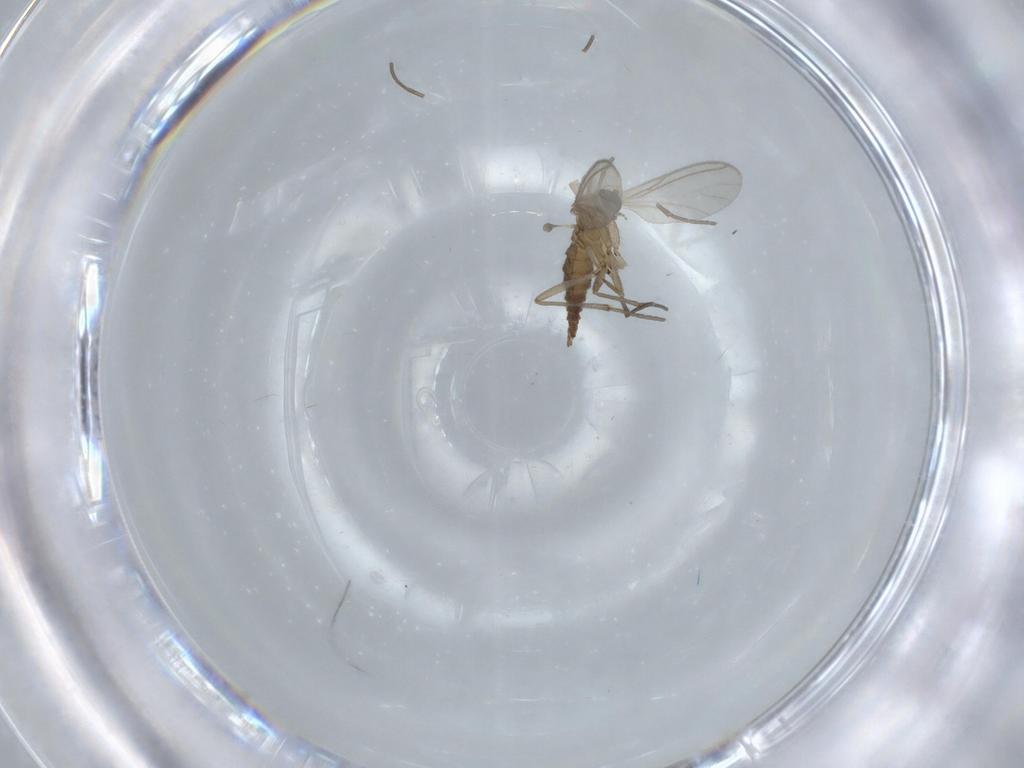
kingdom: Animalia
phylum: Arthropoda
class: Insecta
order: Diptera
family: Sciaridae
